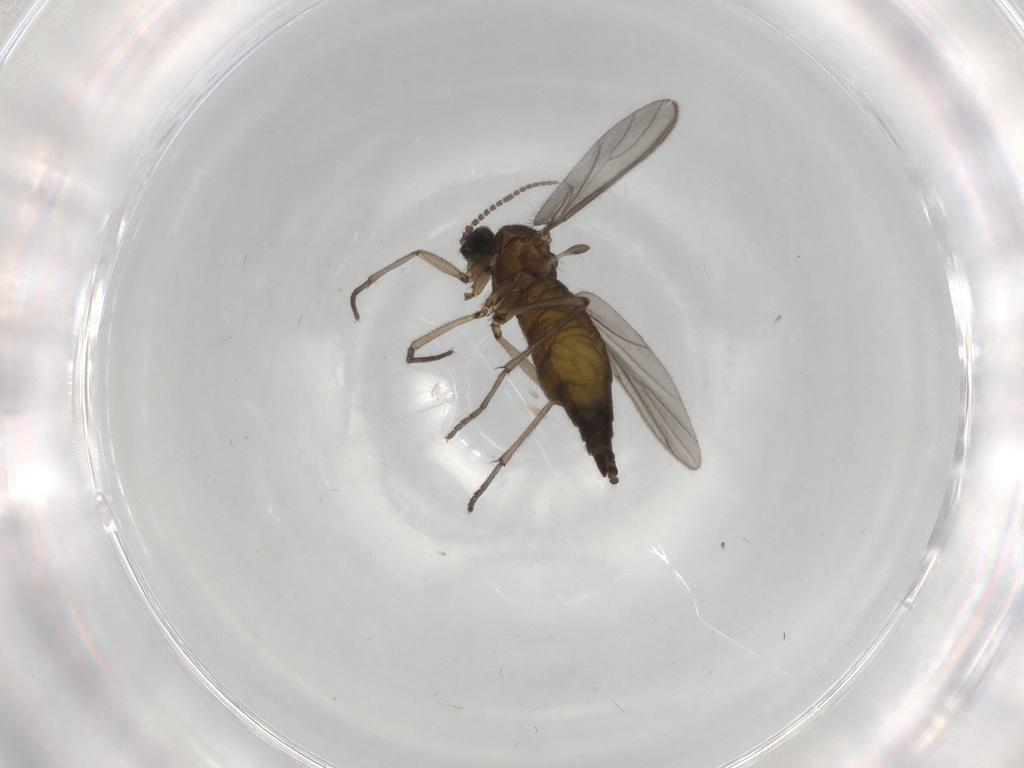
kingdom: Animalia
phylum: Arthropoda
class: Insecta
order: Diptera
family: Sciaridae
